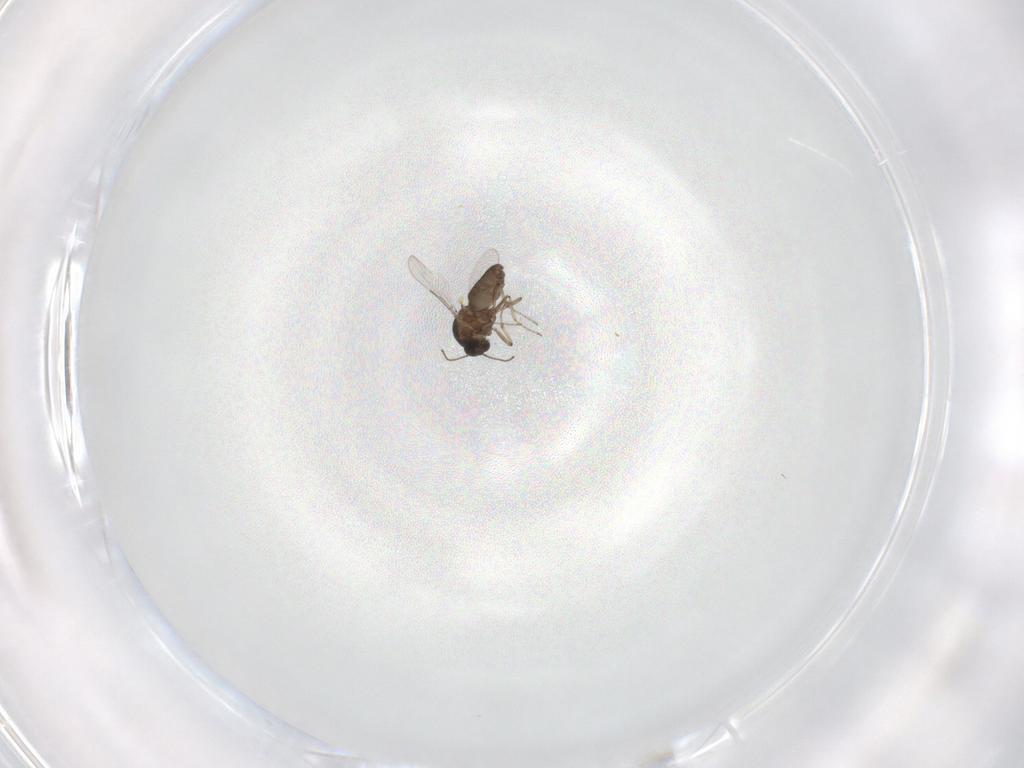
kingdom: Animalia
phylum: Arthropoda
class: Insecta
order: Diptera
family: Ceratopogonidae
